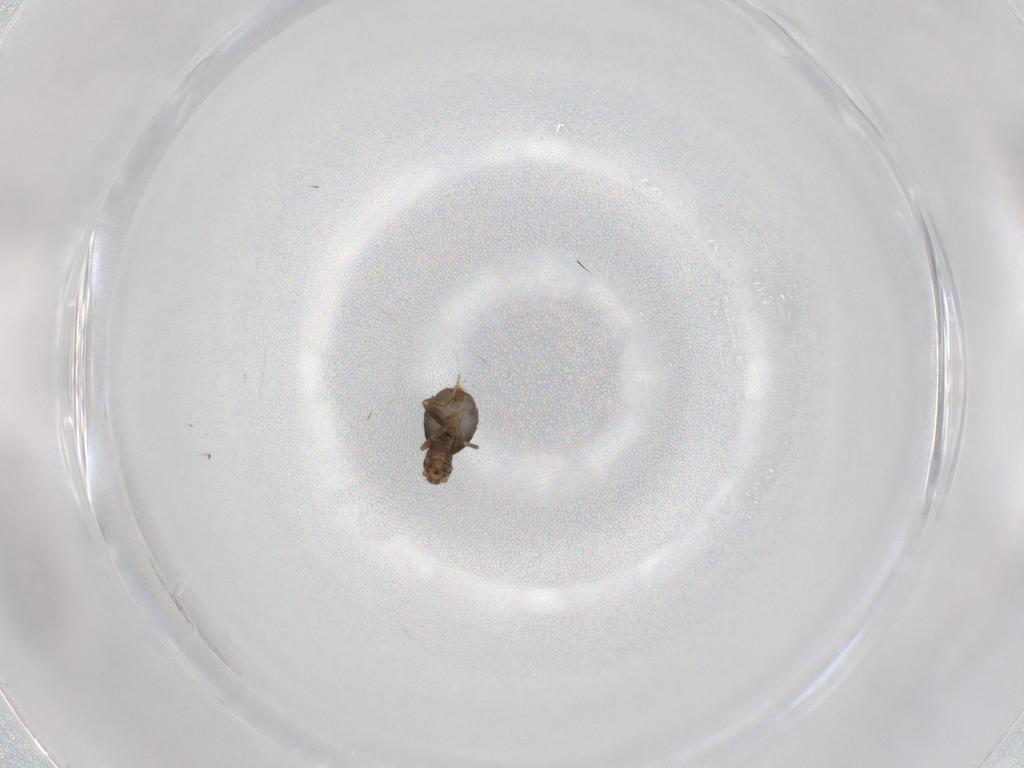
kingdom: Animalia
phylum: Arthropoda
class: Insecta
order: Diptera
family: Phoridae
